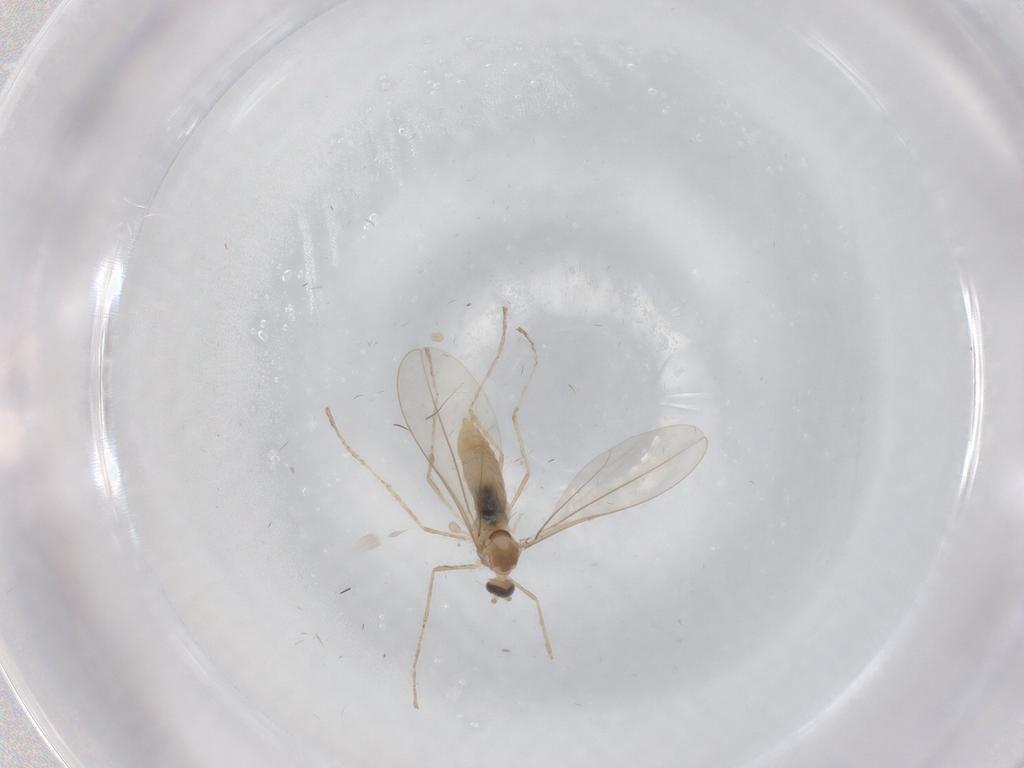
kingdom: Animalia
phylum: Arthropoda
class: Insecta
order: Diptera
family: Cecidomyiidae
